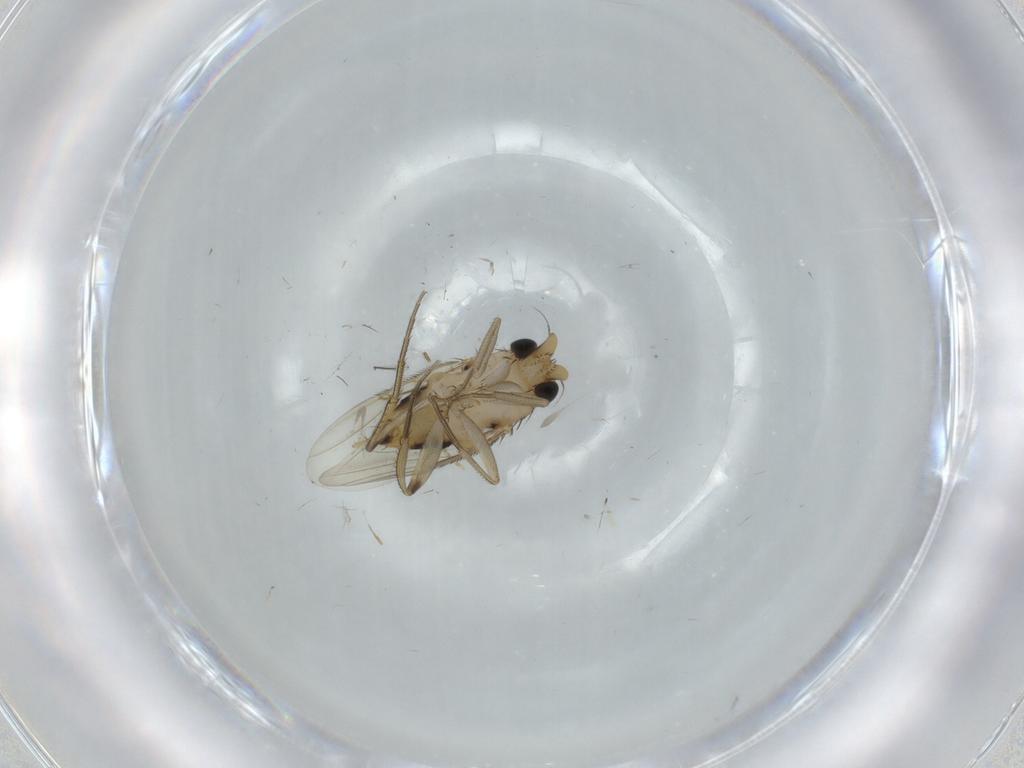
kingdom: Animalia
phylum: Arthropoda
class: Insecta
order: Diptera
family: Phoridae
